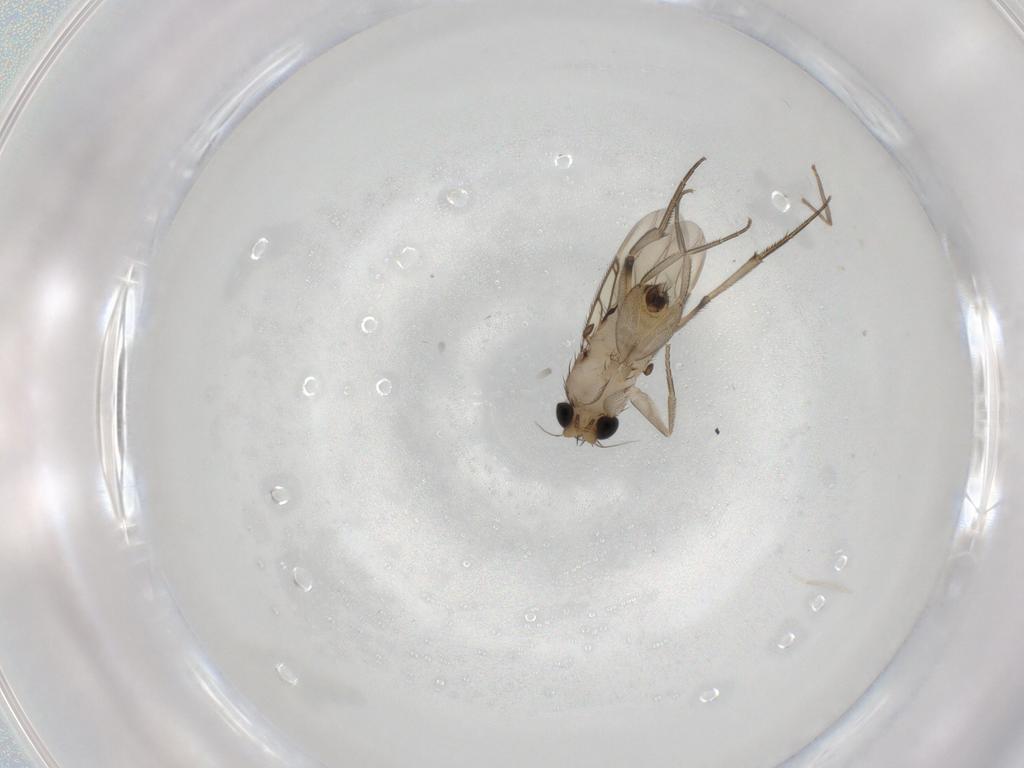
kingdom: Animalia
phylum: Arthropoda
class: Insecta
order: Diptera
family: Phoridae
